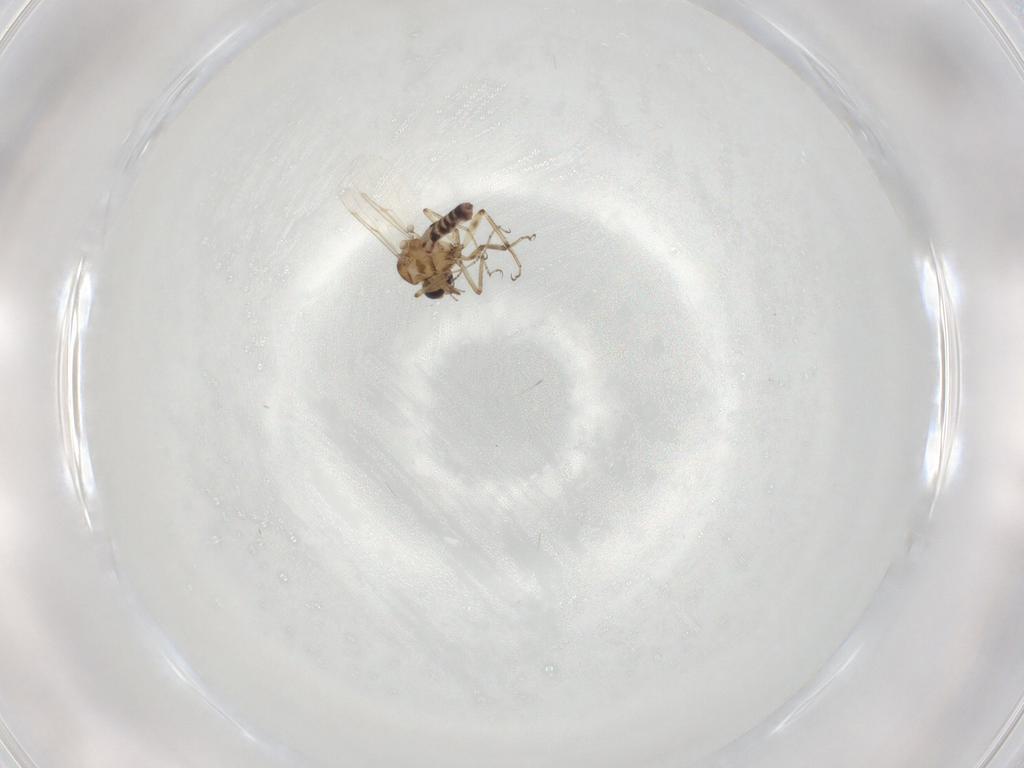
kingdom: Animalia
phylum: Arthropoda
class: Insecta
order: Diptera
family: Ceratopogonidae
